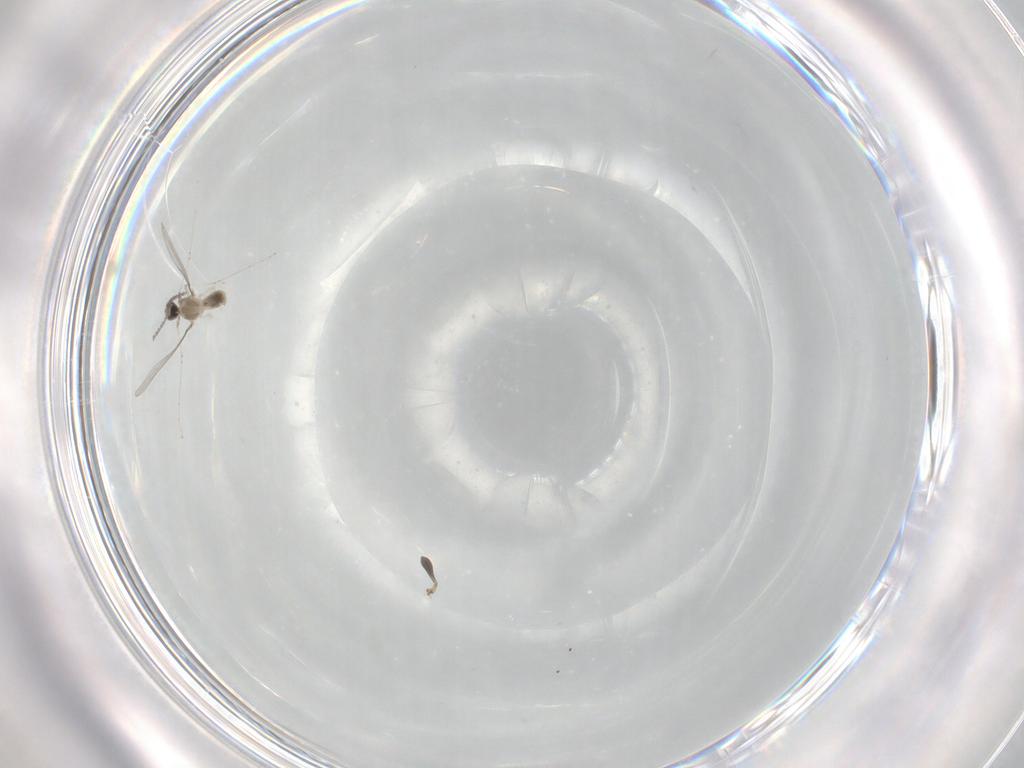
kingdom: Animalia
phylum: Arthropoda
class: Insecta
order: Diptera
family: Cecidomyiidae
